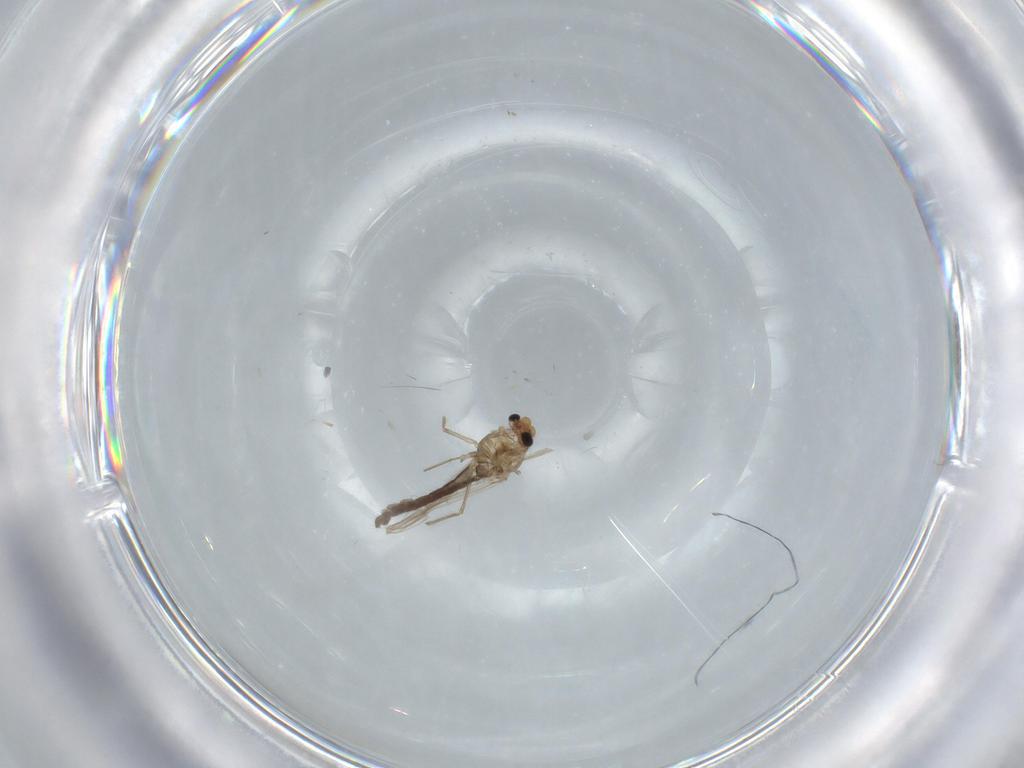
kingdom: Animalia
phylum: Arthropoda
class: Insecta
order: Diptera
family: Chironomidae
